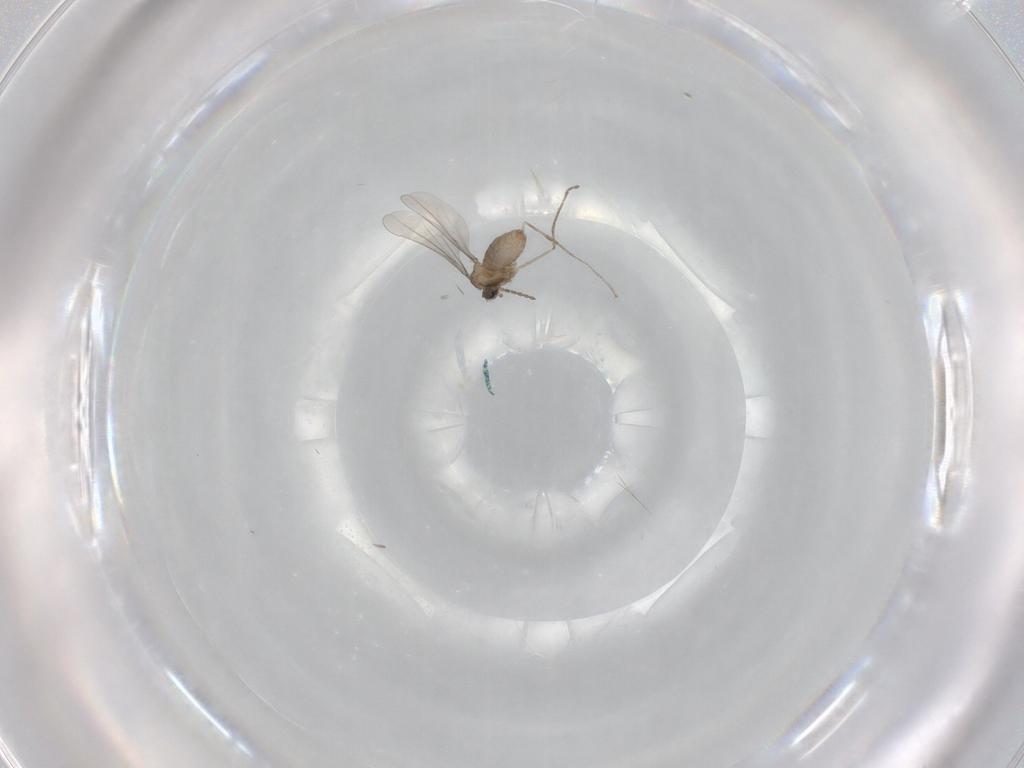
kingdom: Animalia
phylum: Arthropoda
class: Insecta
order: Diptera
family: Cecidomyiidae
